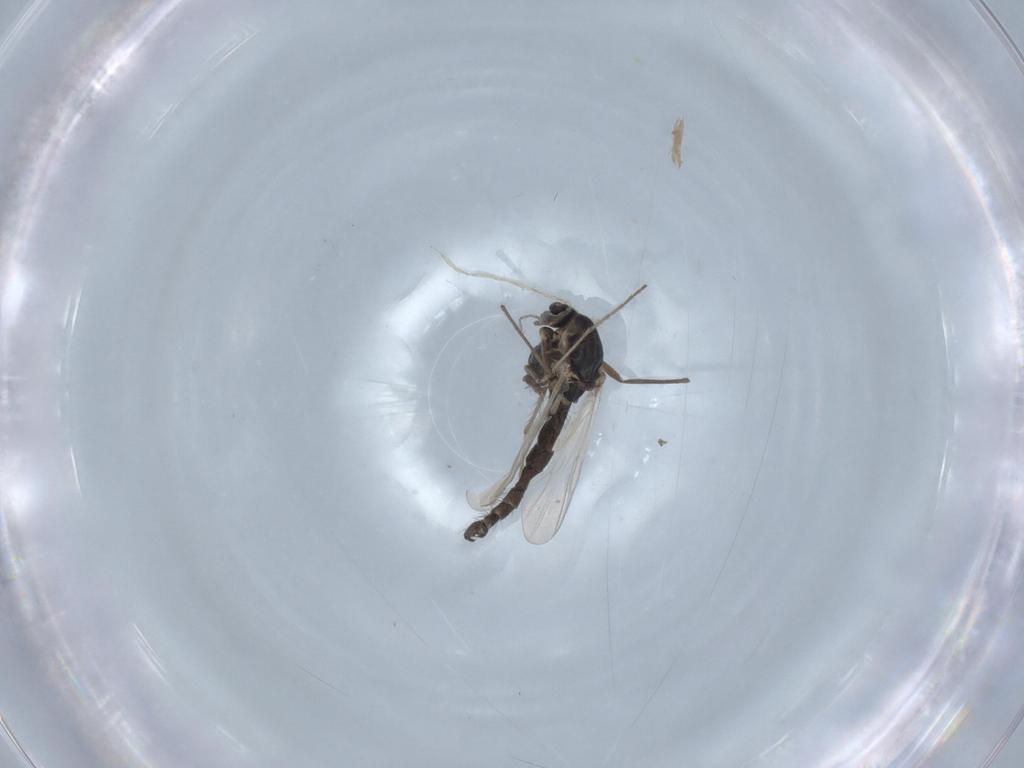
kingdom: Animalia
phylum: Arthropoda
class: Insecta
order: Diptera
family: Chironomidae
